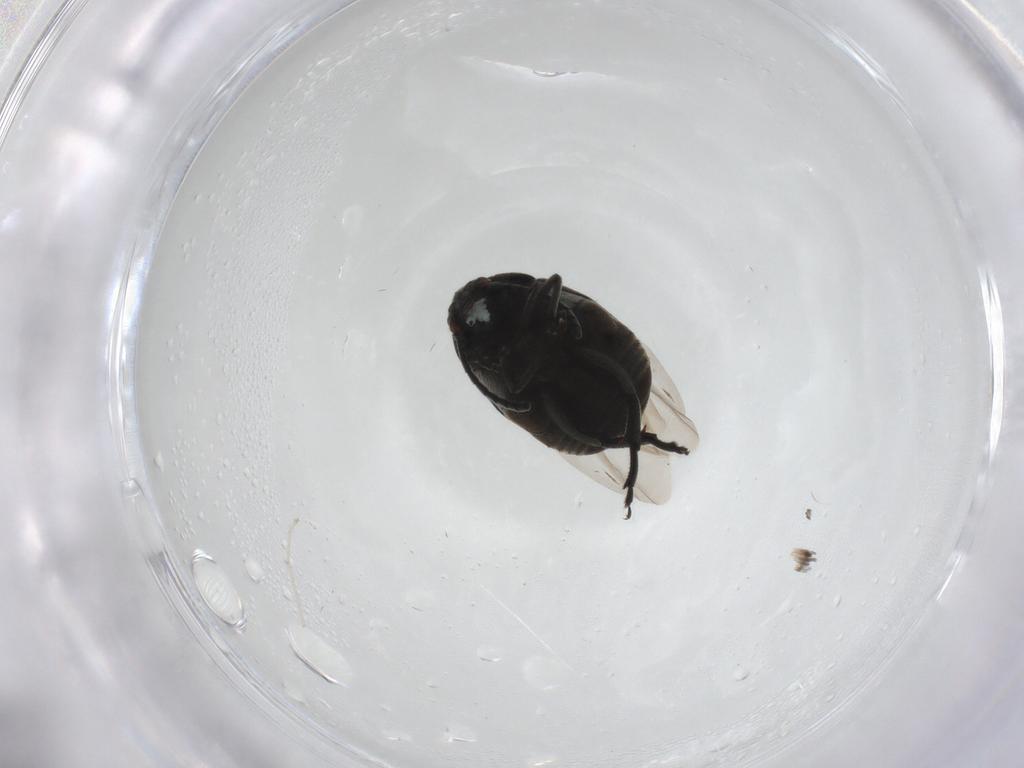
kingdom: Animalia
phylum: Arthropoda
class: Insecta
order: Coleoptera
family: Chrysomelidae
